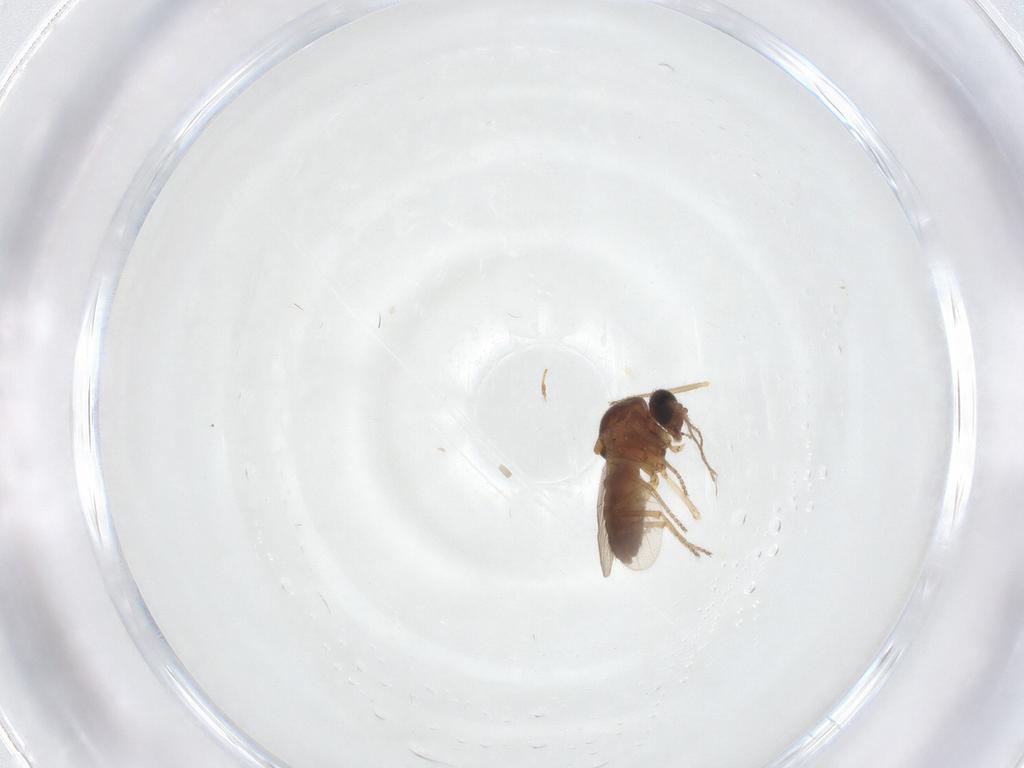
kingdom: Animalia
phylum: Arthropoda
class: Insecta
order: Diptera
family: Ceratopogonidae
